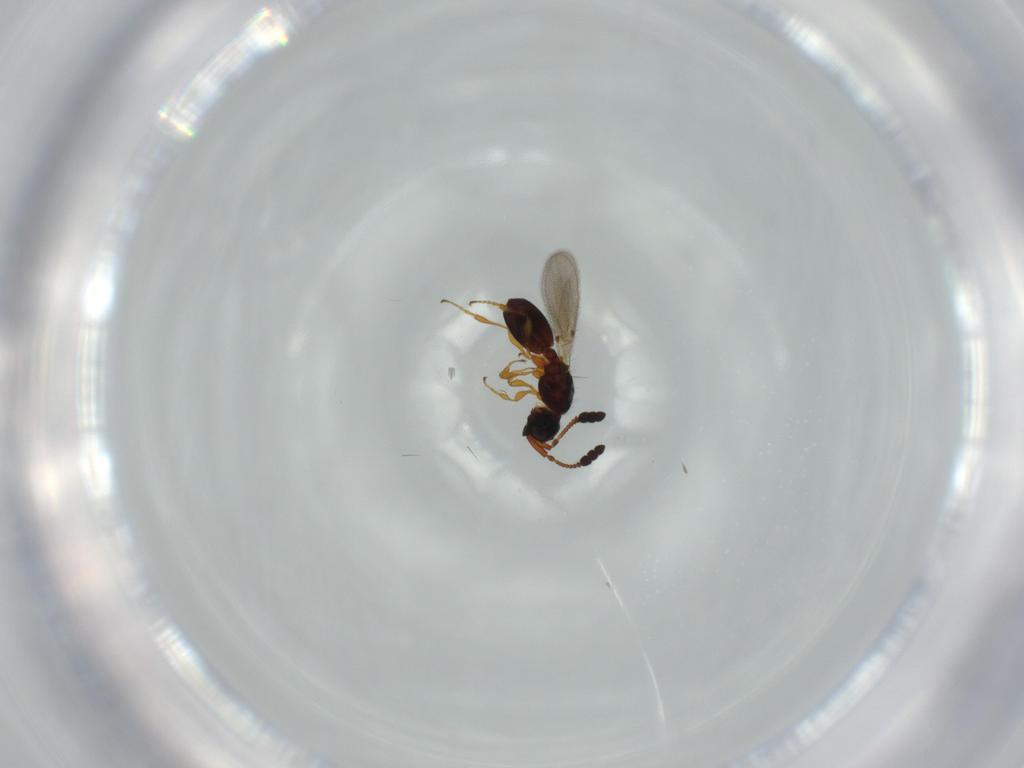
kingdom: Animalia
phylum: Arthropoda
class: Insecta
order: Hymenoptera
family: Diapriidae
